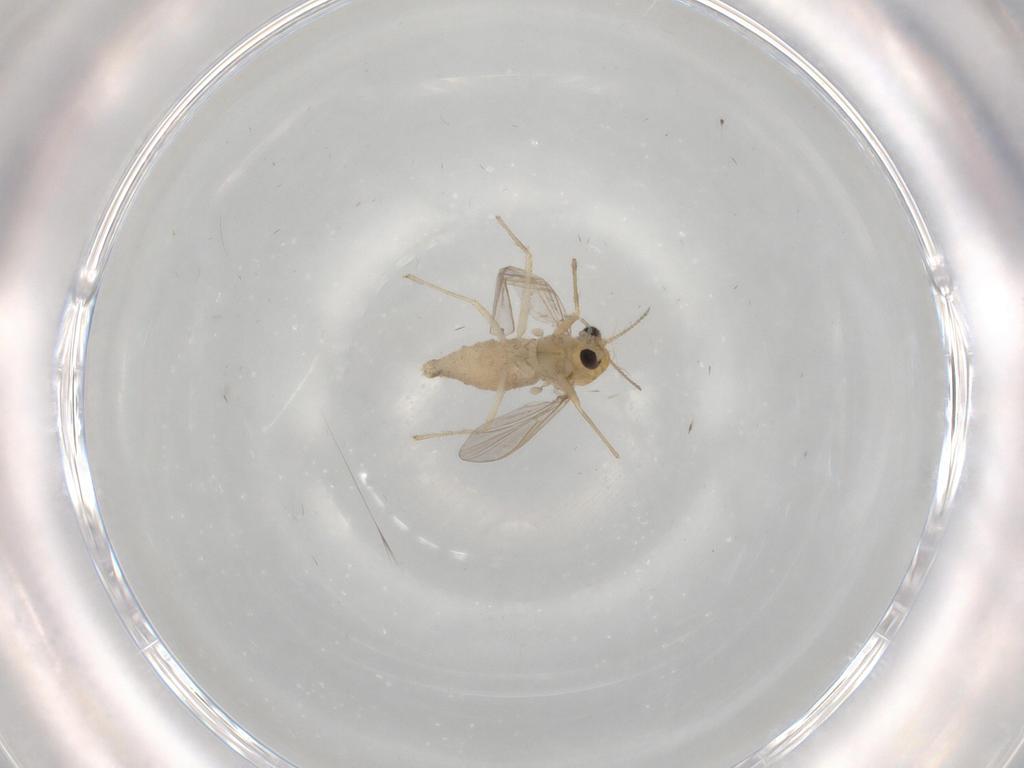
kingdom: Animalia
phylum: Arthropoda
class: Insecta
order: Diptera
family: Chironomidae
